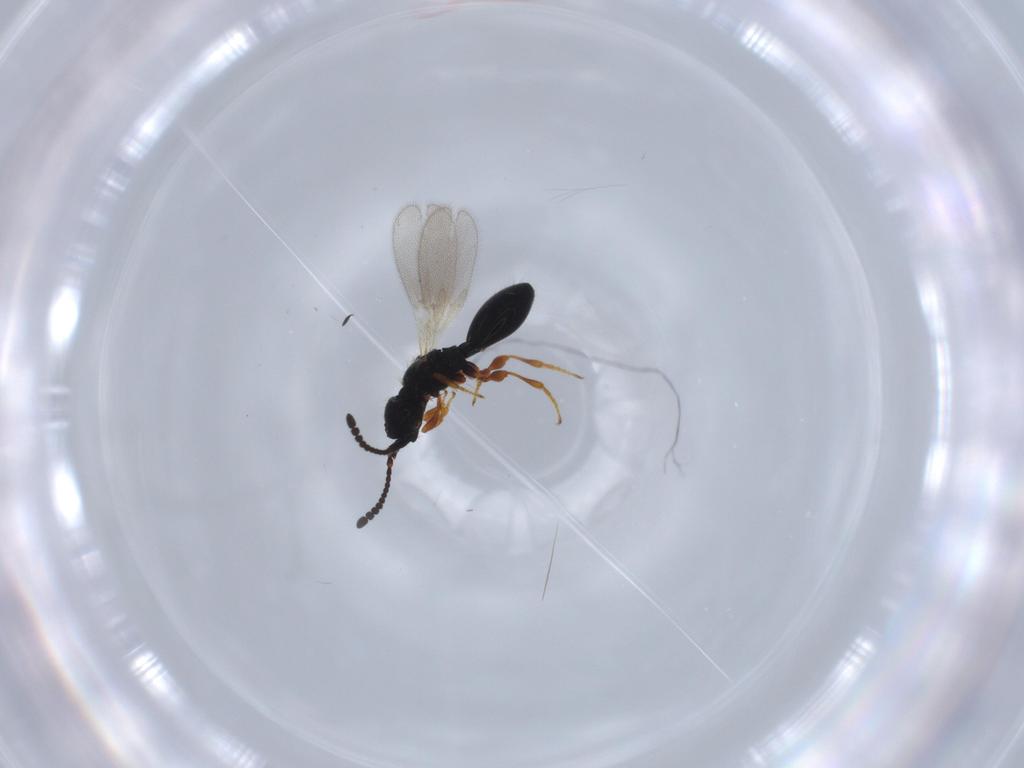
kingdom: Animalia
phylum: Arthropoda
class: Insecta
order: Hymenoptera
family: Diapriidae
